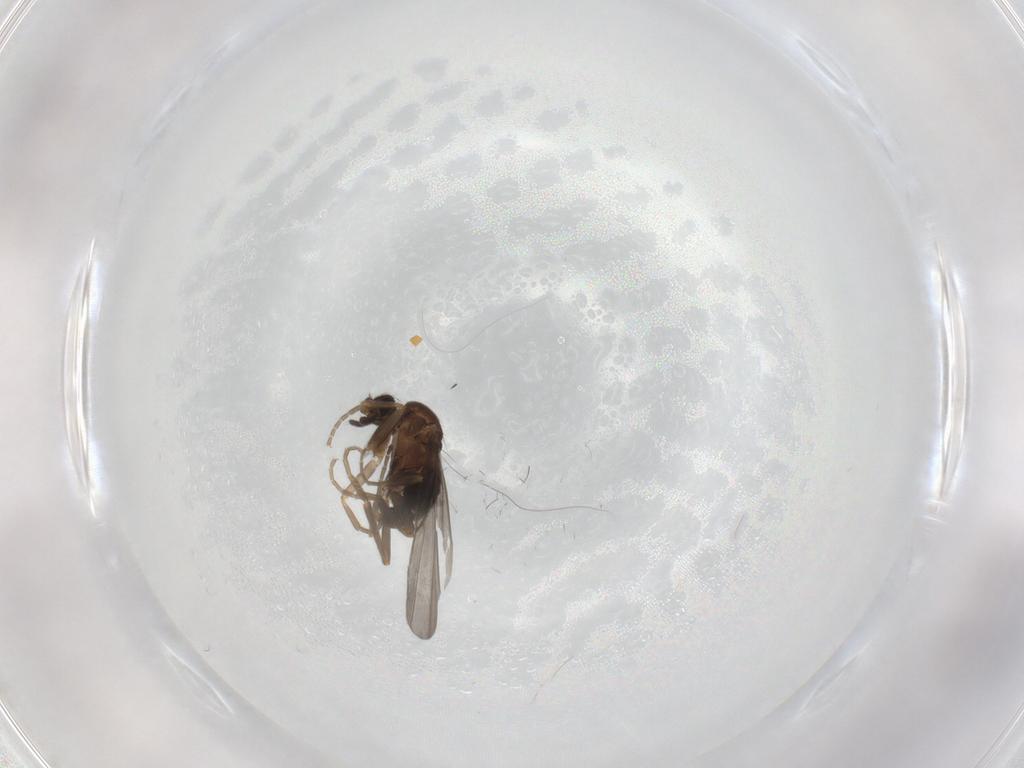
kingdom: Animalia
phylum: Arthropoda
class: Insecta
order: Diptera
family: Phoridae
